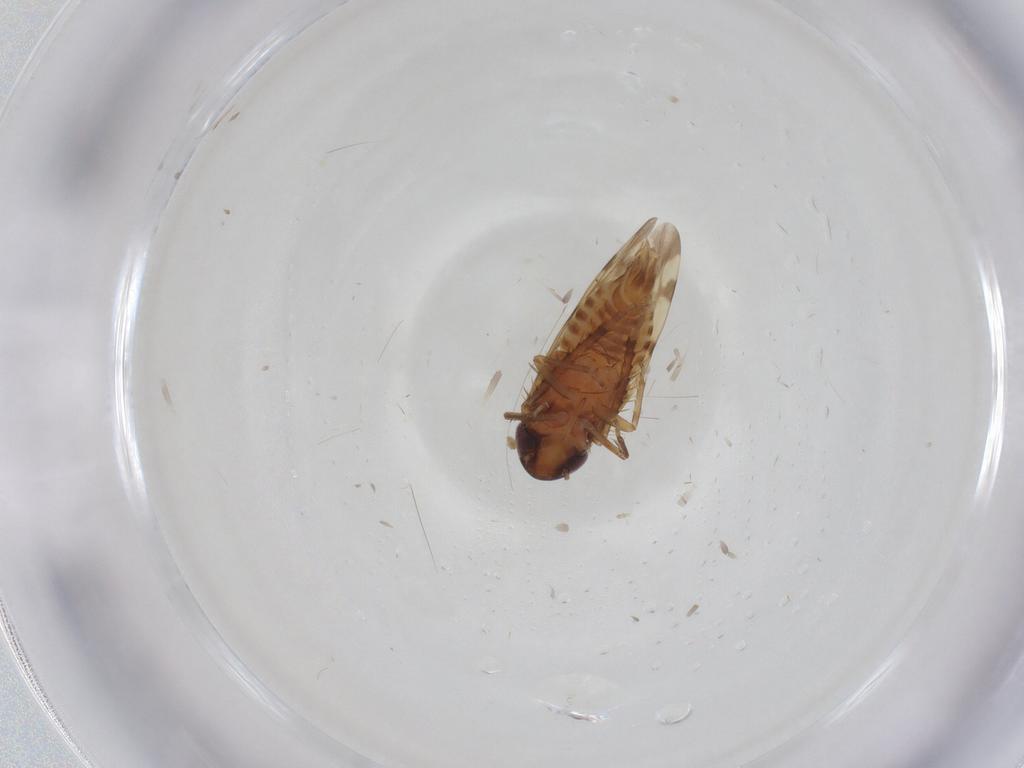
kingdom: Animalia
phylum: Arthropoda
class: Insecta
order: Hemiptera
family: Cicadellidae
